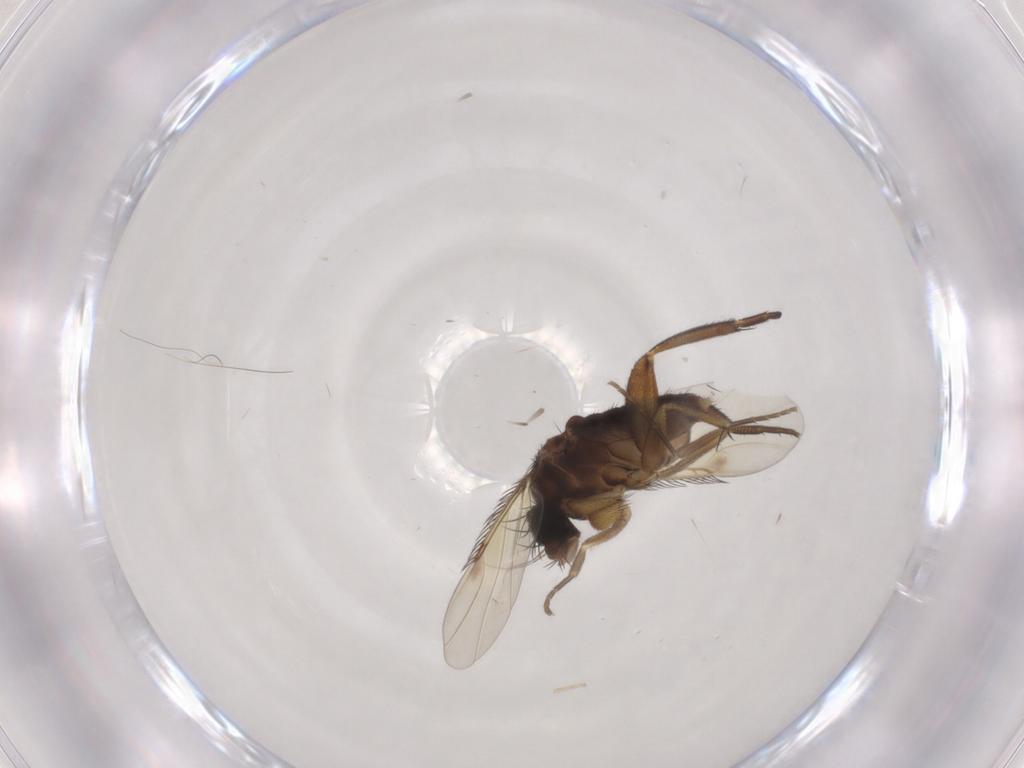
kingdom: Animalia
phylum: Arthropoda
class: Insecta
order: Diptera
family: Phoridae
